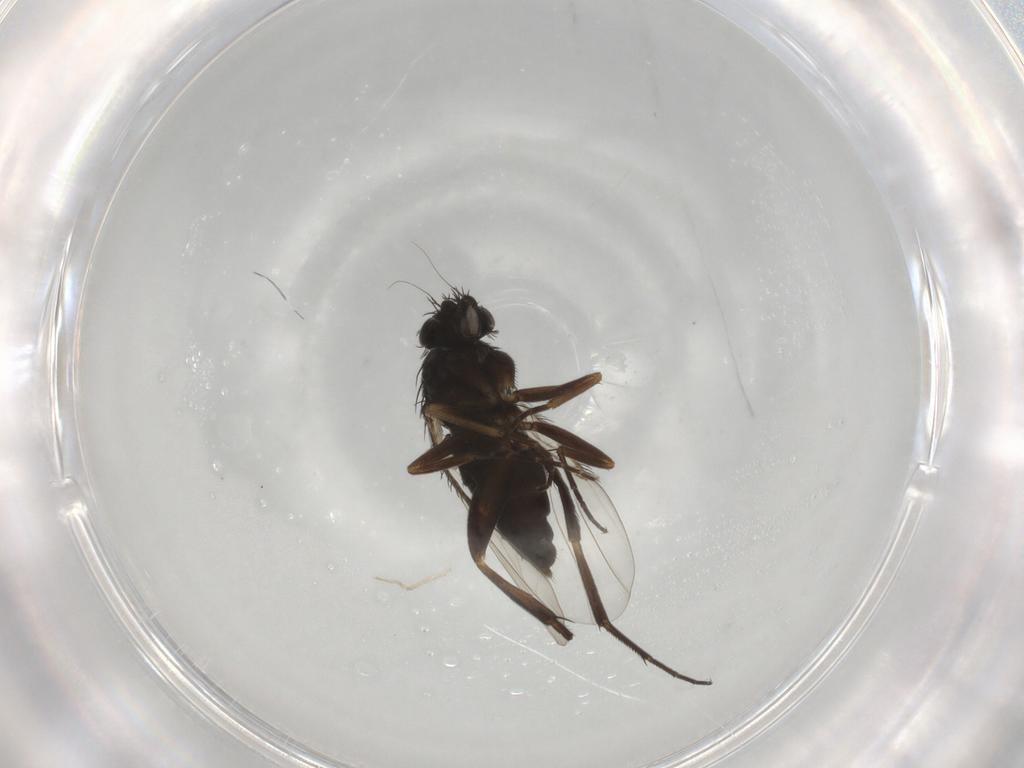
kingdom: Animalia
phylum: Arthropoda
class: Insecta
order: Diptera
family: Phoridae
